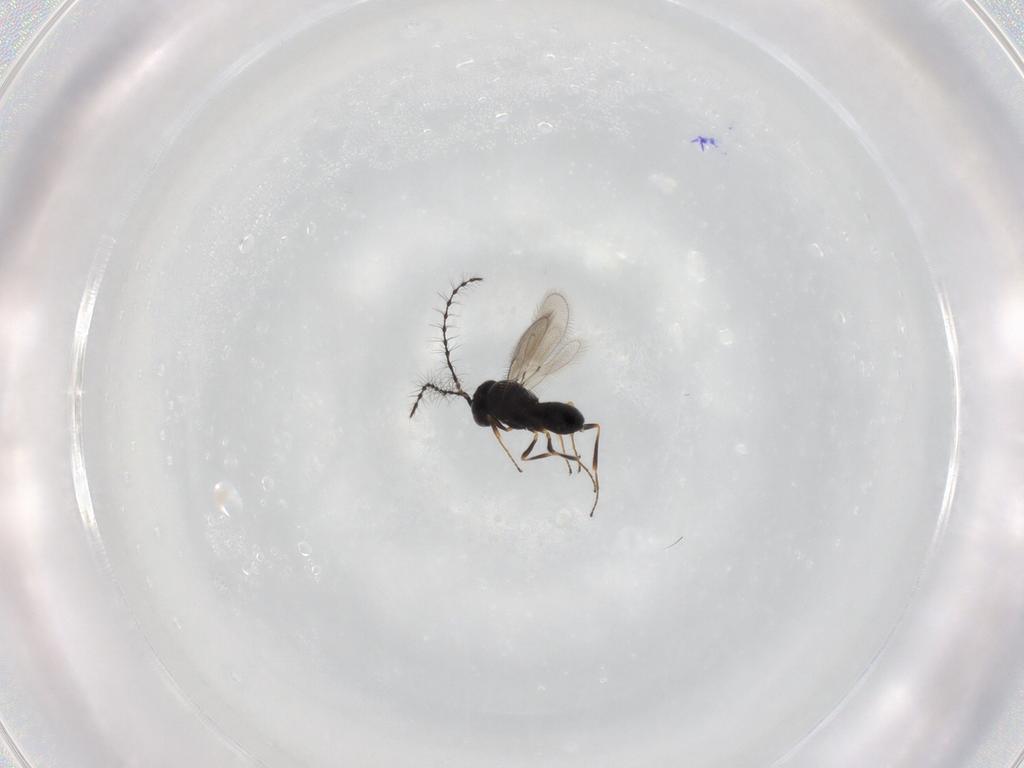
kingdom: Animalia
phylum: Arthropoda
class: Insecta
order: Hymenoptera
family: Scelionidae
